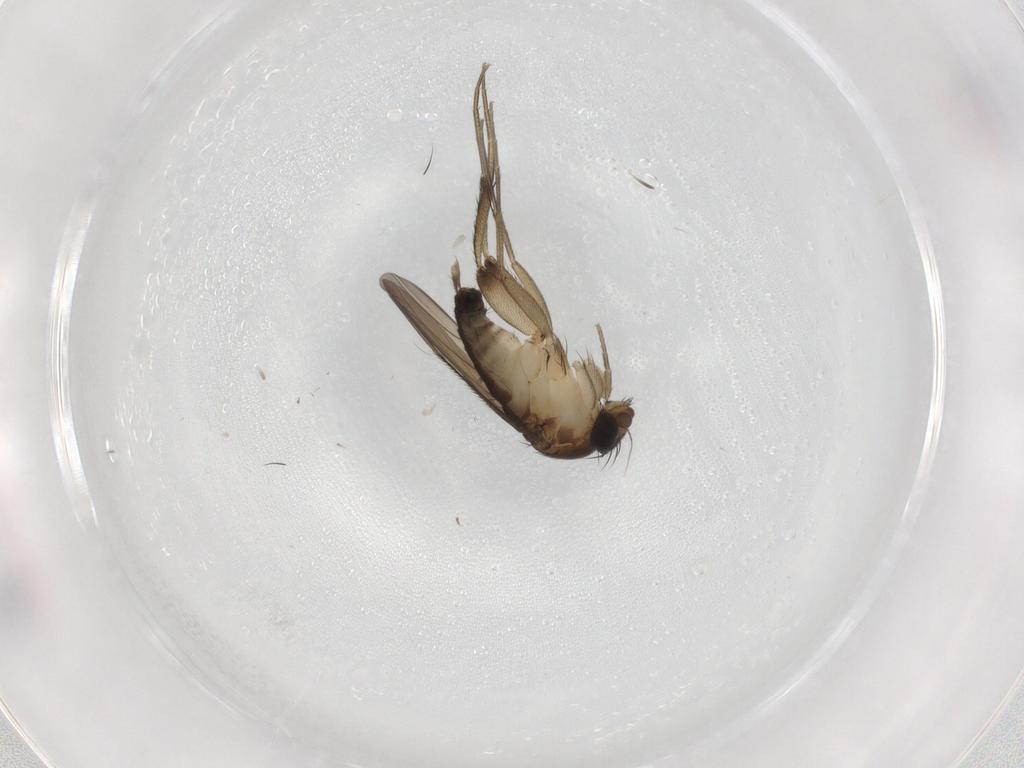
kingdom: Animalia
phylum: Arthropoda
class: Insecta
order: Diptera
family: Phoridae
